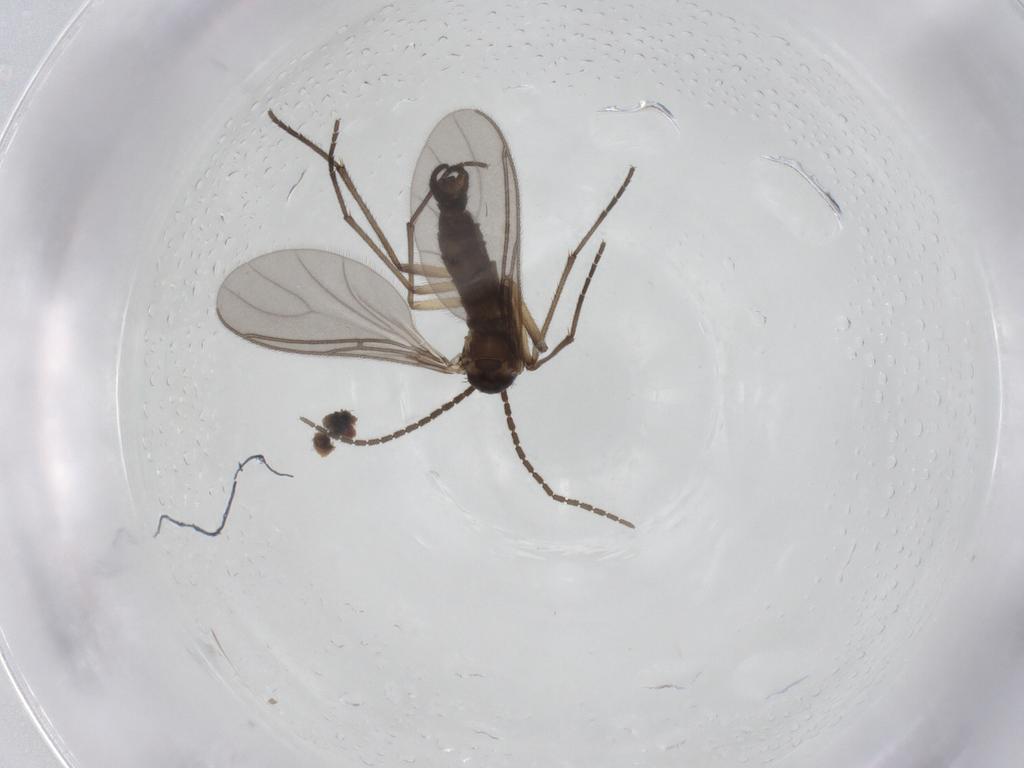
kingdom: Animalia
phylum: Arthropoda
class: Insecta
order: Diptera
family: Sciaridae
